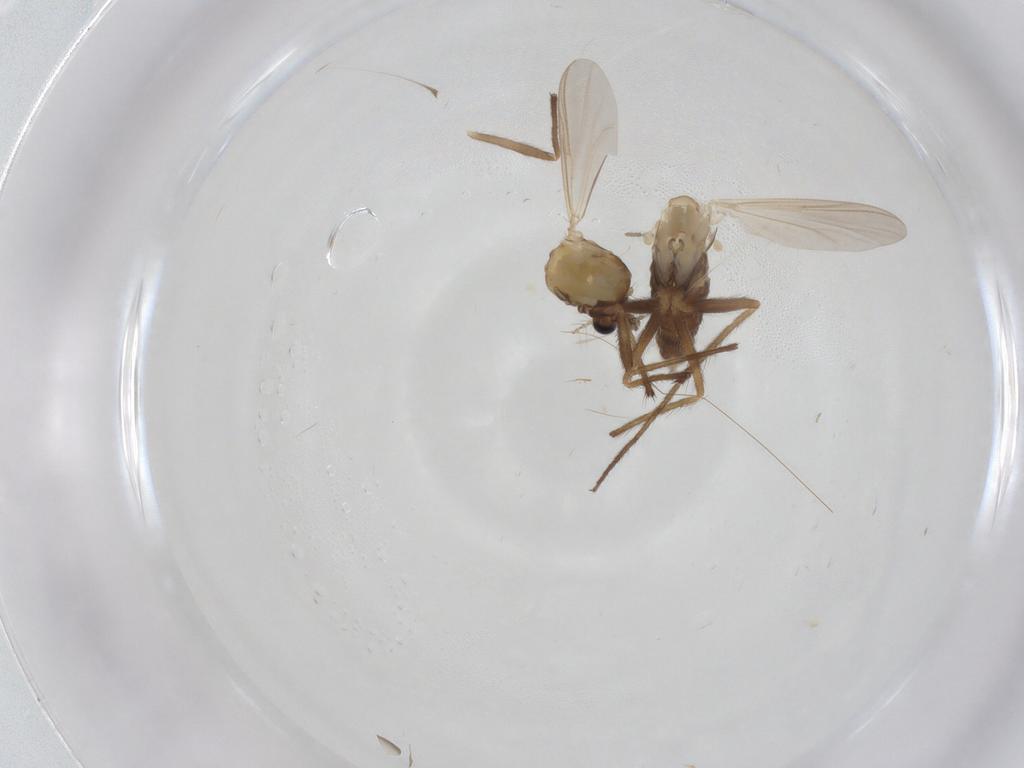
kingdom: Animalia
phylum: Arthropoda
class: Insecta
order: Diptera
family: Chironomidae
